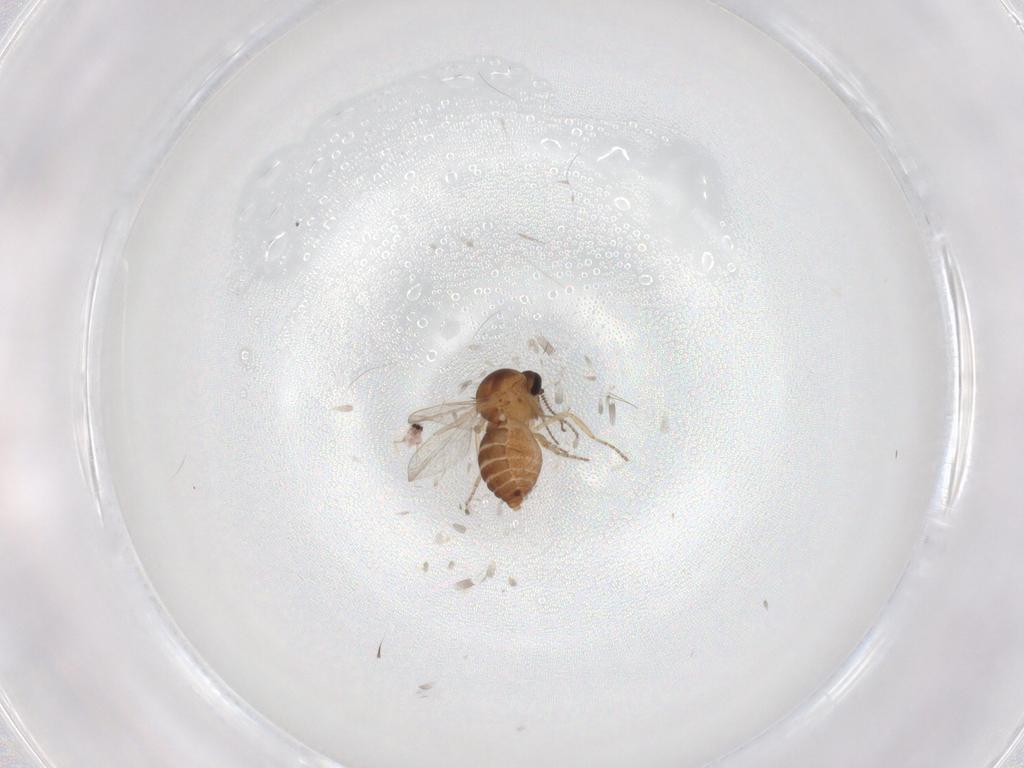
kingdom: Animalia
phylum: Arthropoda
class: Insecta
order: Diptera
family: Ceratopogonidae
